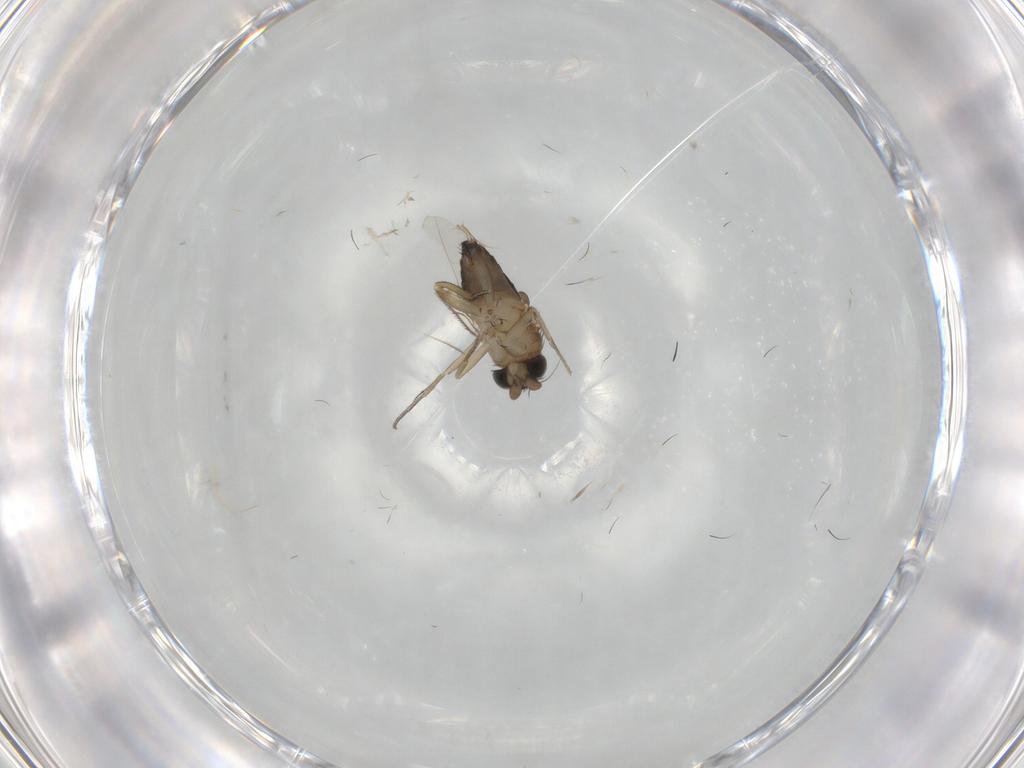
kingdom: Animalia
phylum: Arthropoda
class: Insecta
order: Diptera
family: Phoridae
